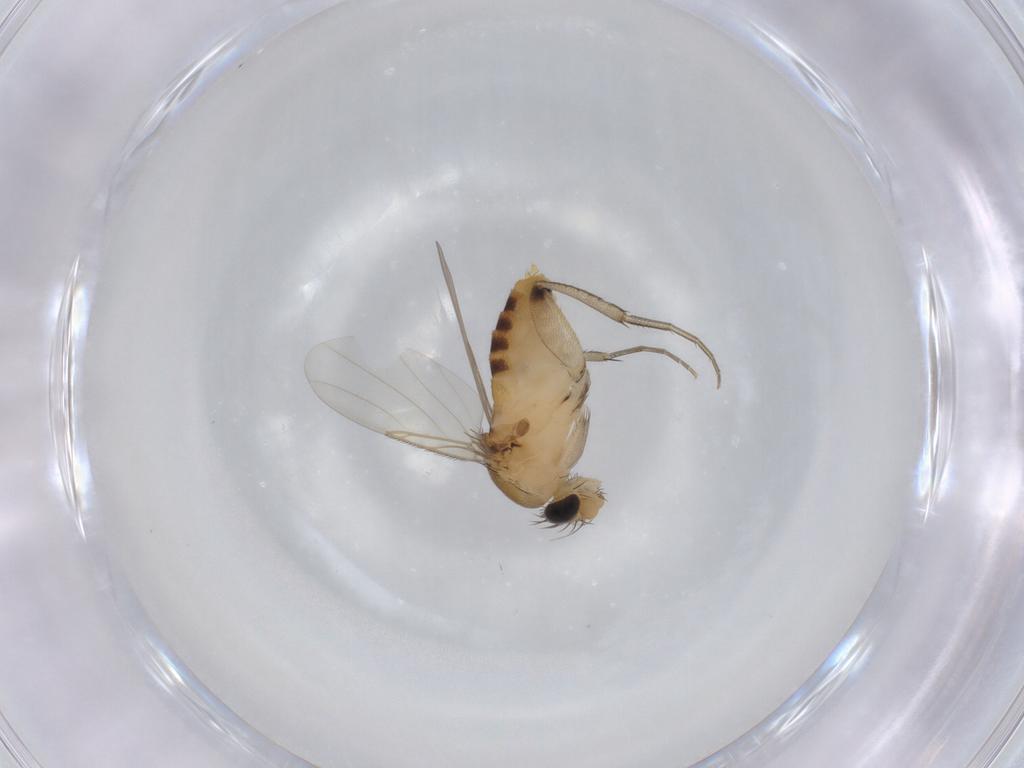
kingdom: Animalia
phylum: Arthropoda
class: Insecta
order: Diptera
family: Phoridae
